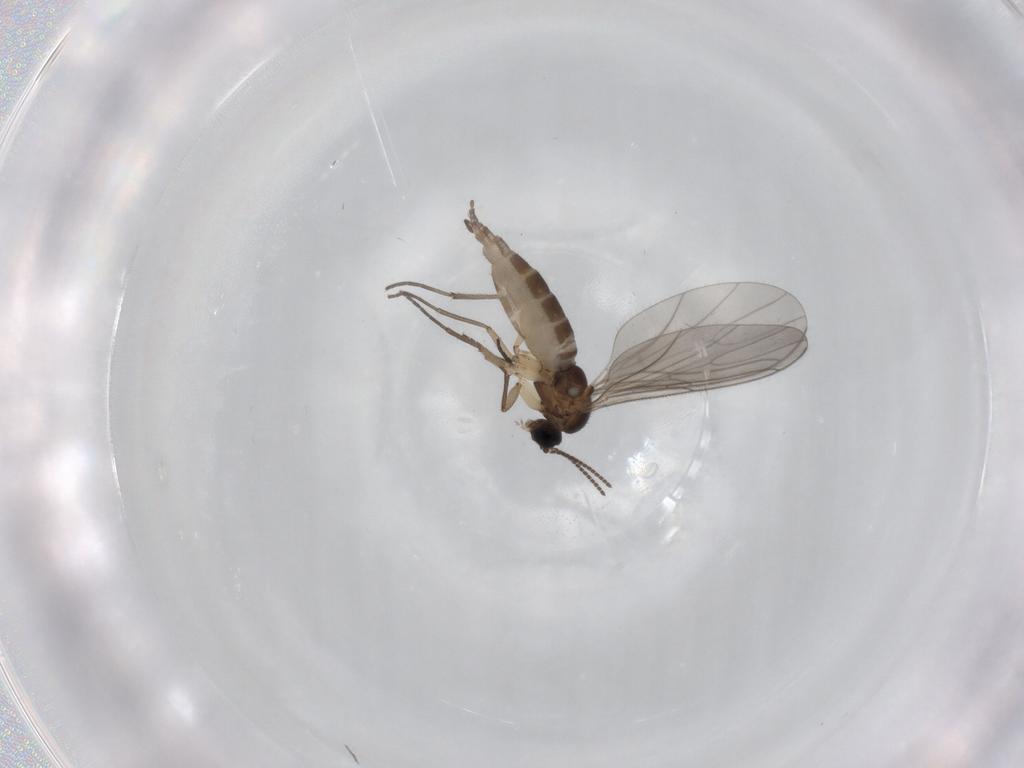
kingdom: Animalia
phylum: Arthropoda
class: Insecta
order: Diptera
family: Sciaridae
